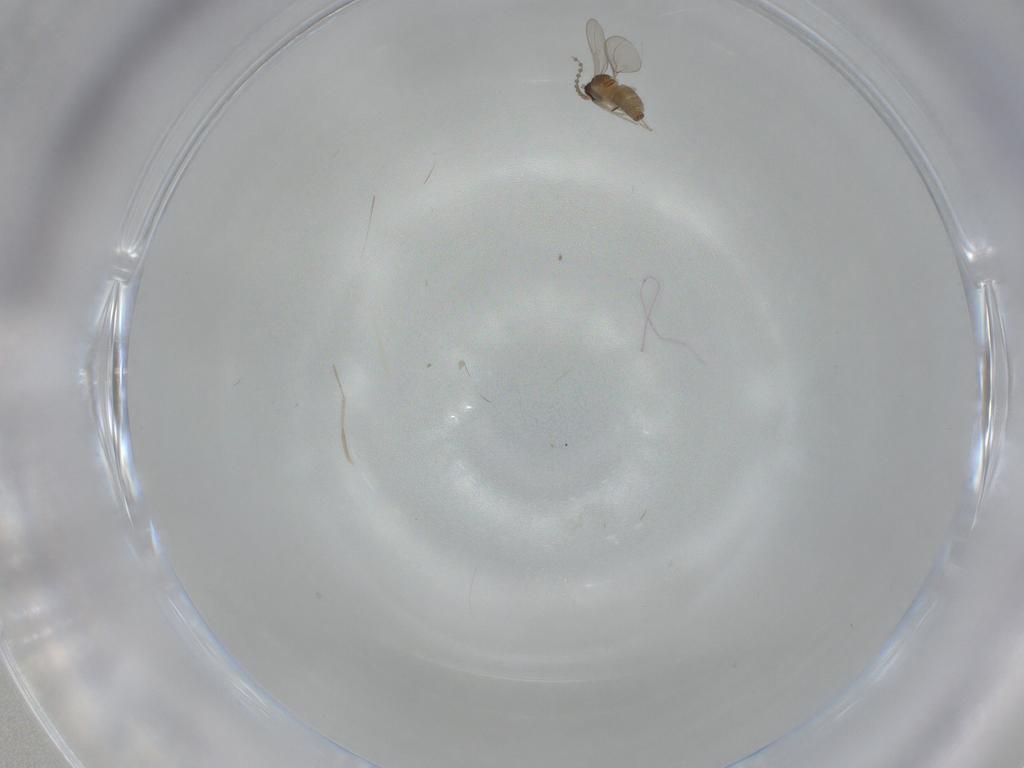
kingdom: Animalia
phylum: Arthropoda
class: Insecta
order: Diptera
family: Cecidomyiidae
